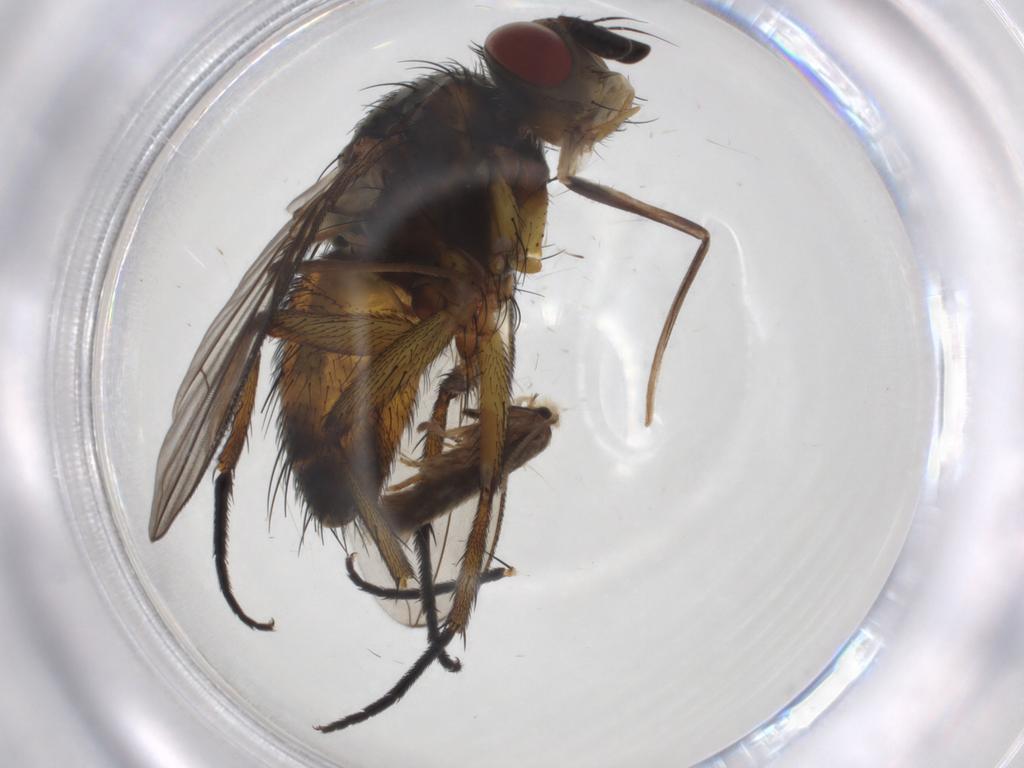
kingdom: Animalia
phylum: Arthropoda
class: Insecta
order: Diptera
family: Tachinidae
